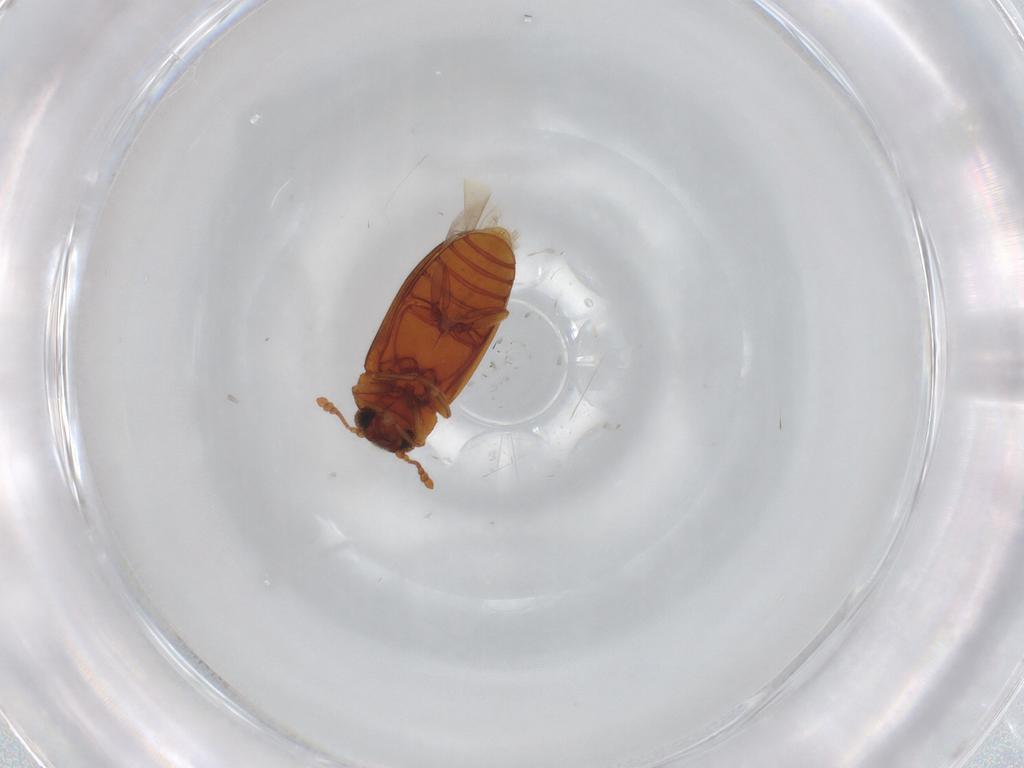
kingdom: Animalia
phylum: Arthropoda
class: Insecta
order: Coleoptera
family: Erotylidae
